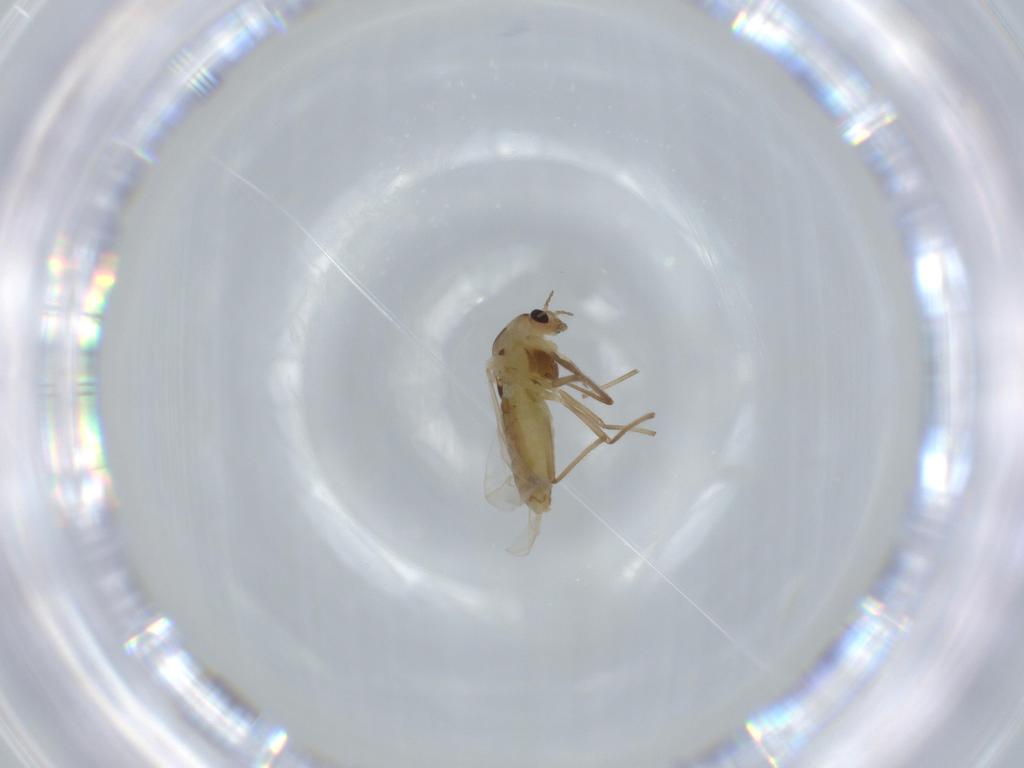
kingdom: Animalia
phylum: Arthropoda
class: Insecta
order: Diptera
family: Chironomidae
